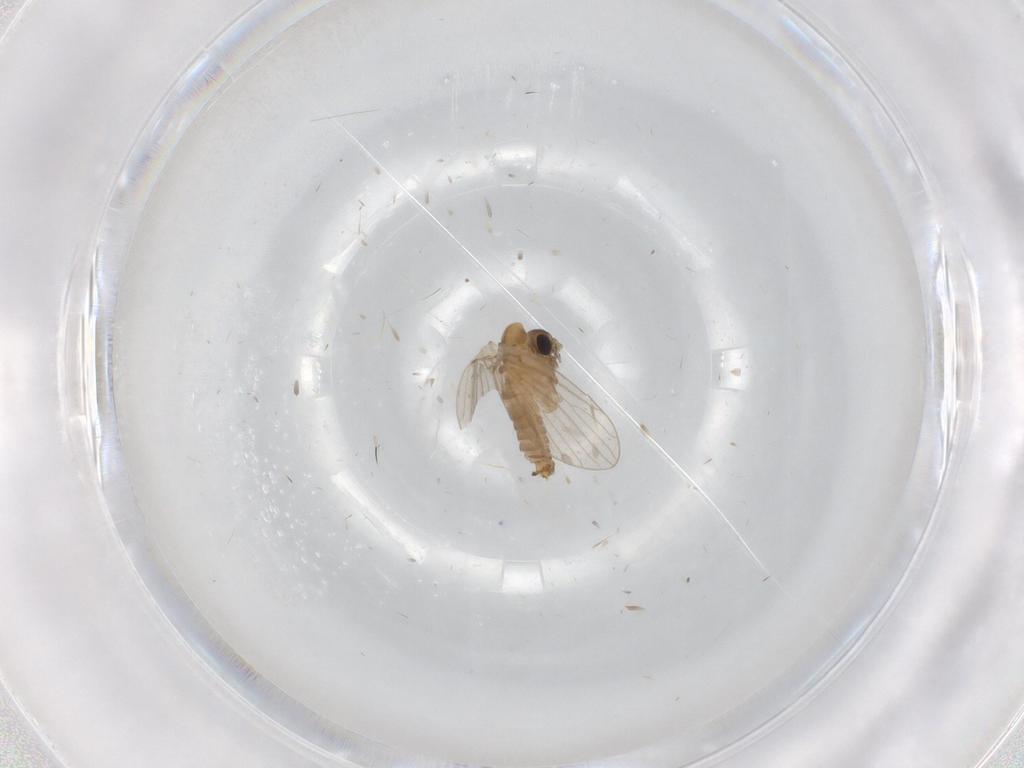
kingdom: Animalia
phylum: Arthropoda
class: Insecta
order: Diptera
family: Psychodidae
